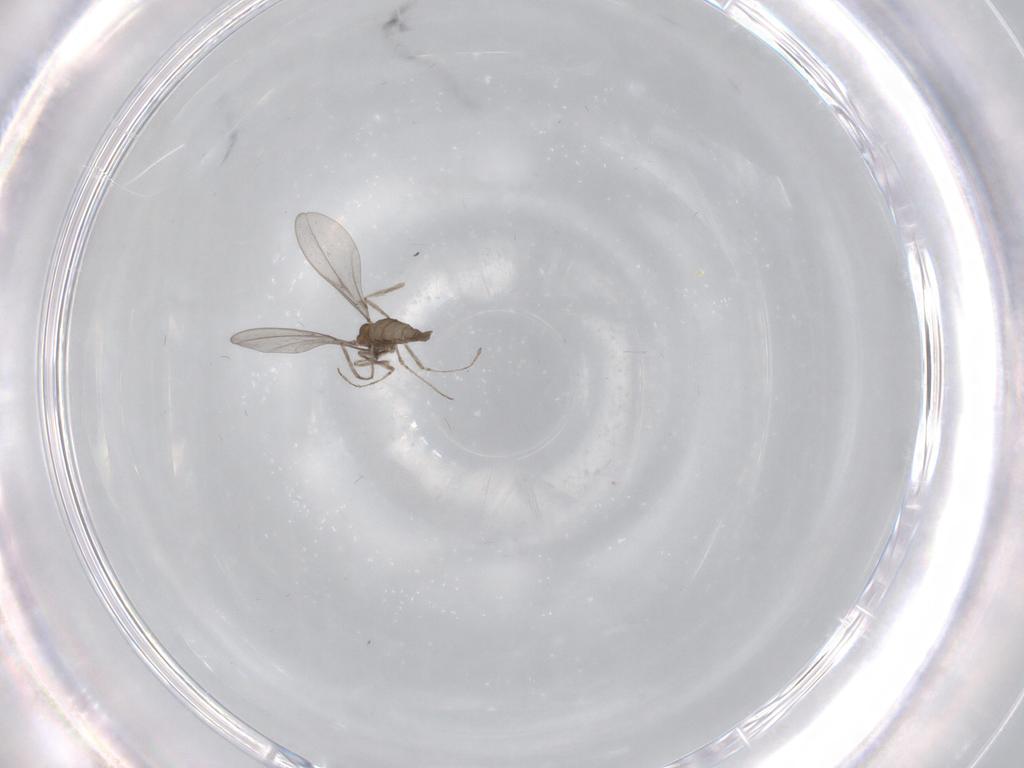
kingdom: Animalia
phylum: Arthropoda
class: Insecta
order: Diptera
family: Cecidomyiidae
